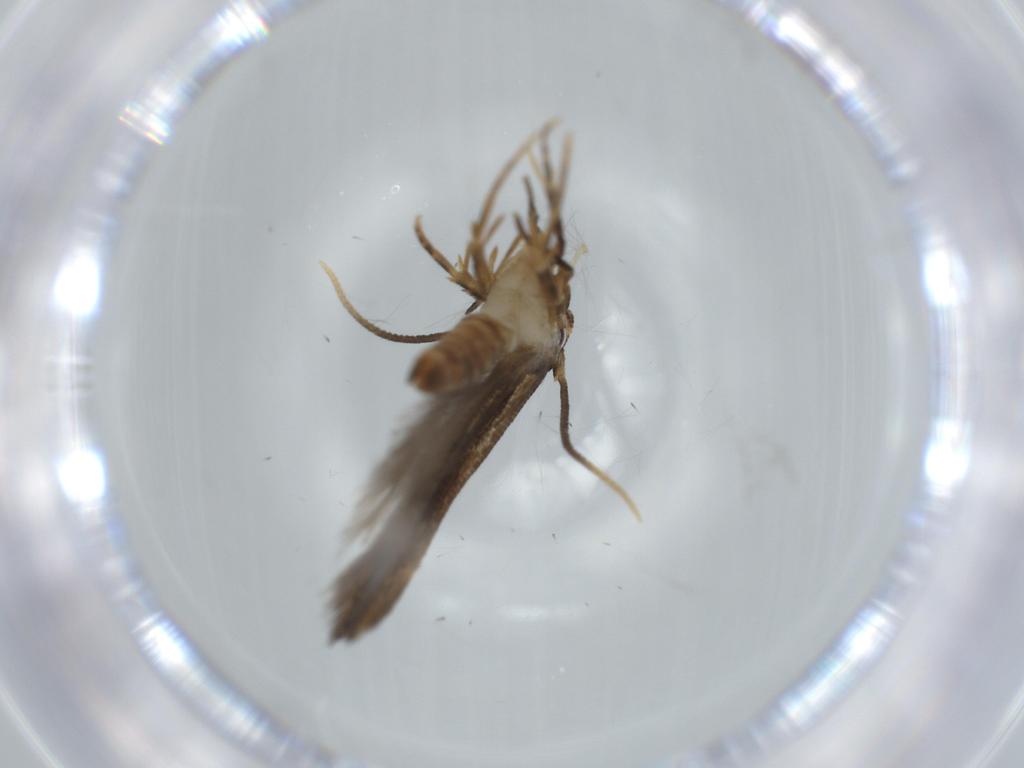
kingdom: Animalia
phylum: Arthropoda
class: Insecta
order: Lepidoptera
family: Cosmopterigidae
